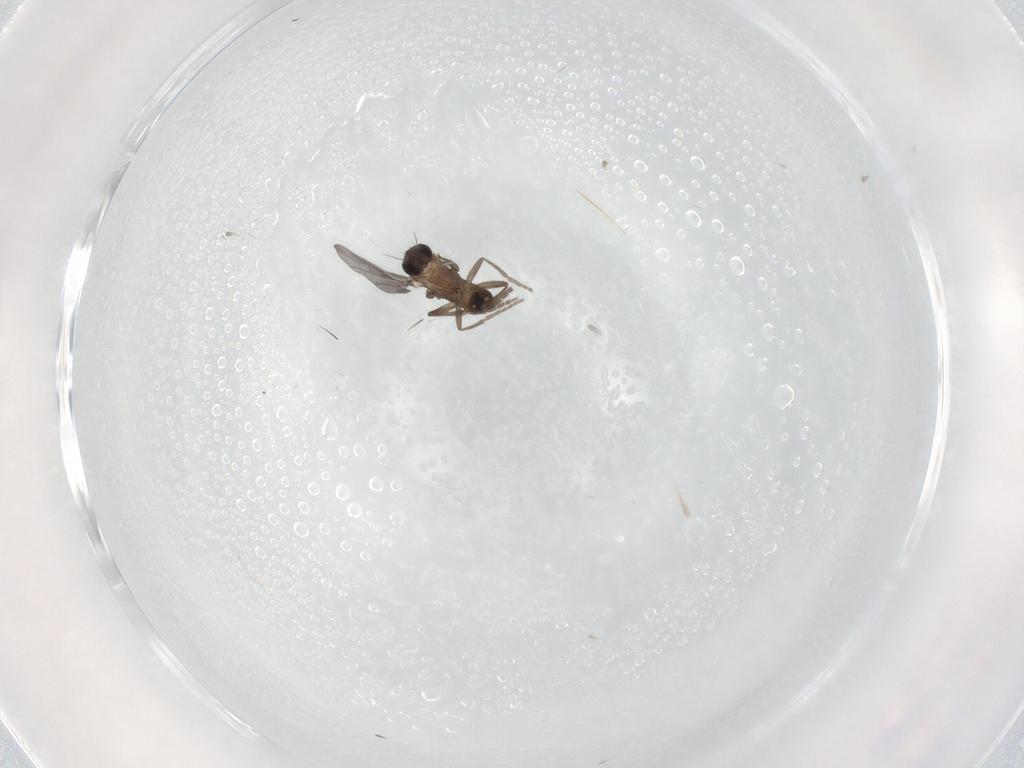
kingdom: Animalia
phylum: Arthropoda
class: Insecta
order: Diptera
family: Phoridae
